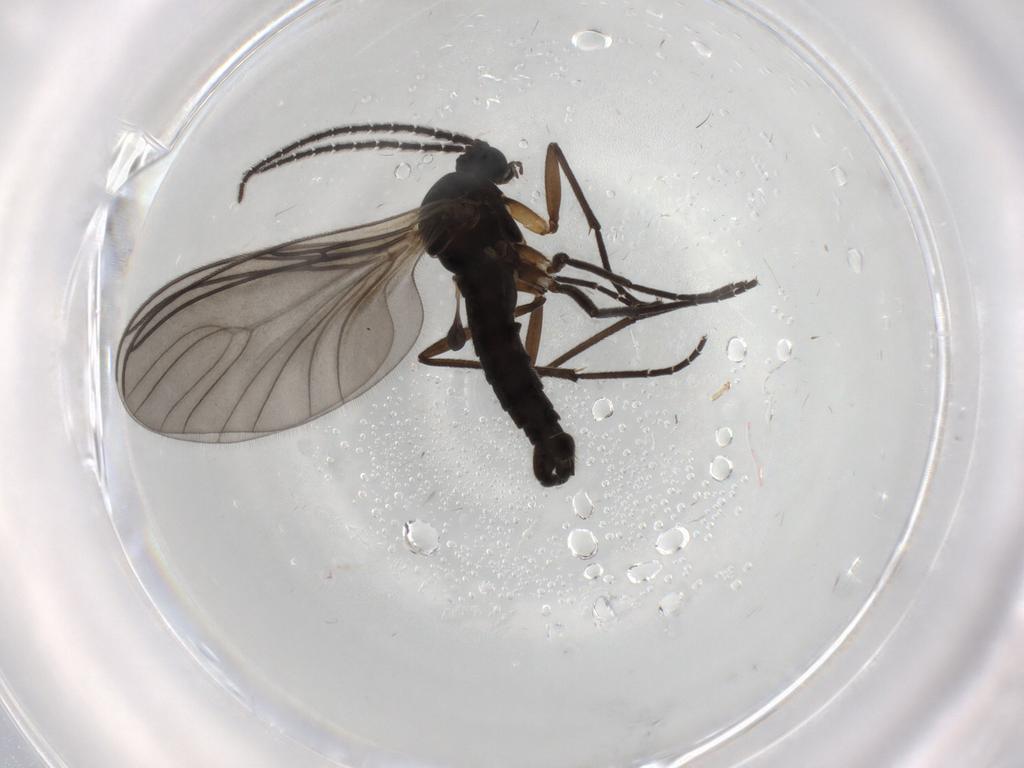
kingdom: Animalia
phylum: Arthropoda
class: Insecta
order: Diptera
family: Sciaridae
